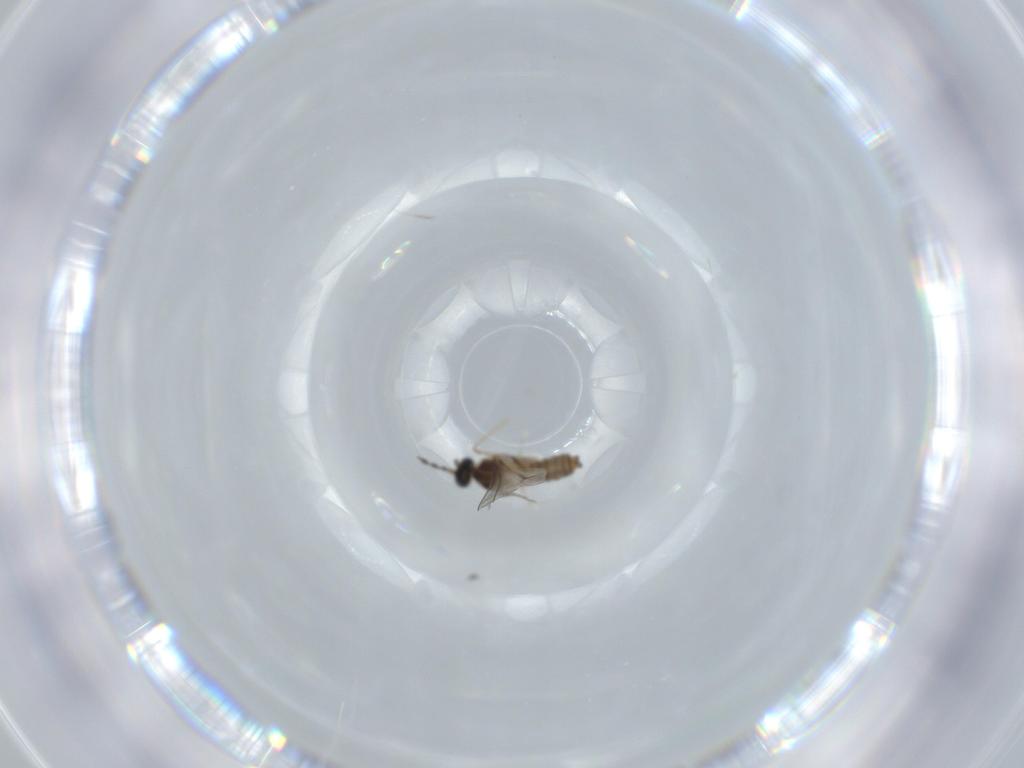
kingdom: Animalia
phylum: Arthropoda
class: Insecta
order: Diptera
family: Cecidomyiidae
